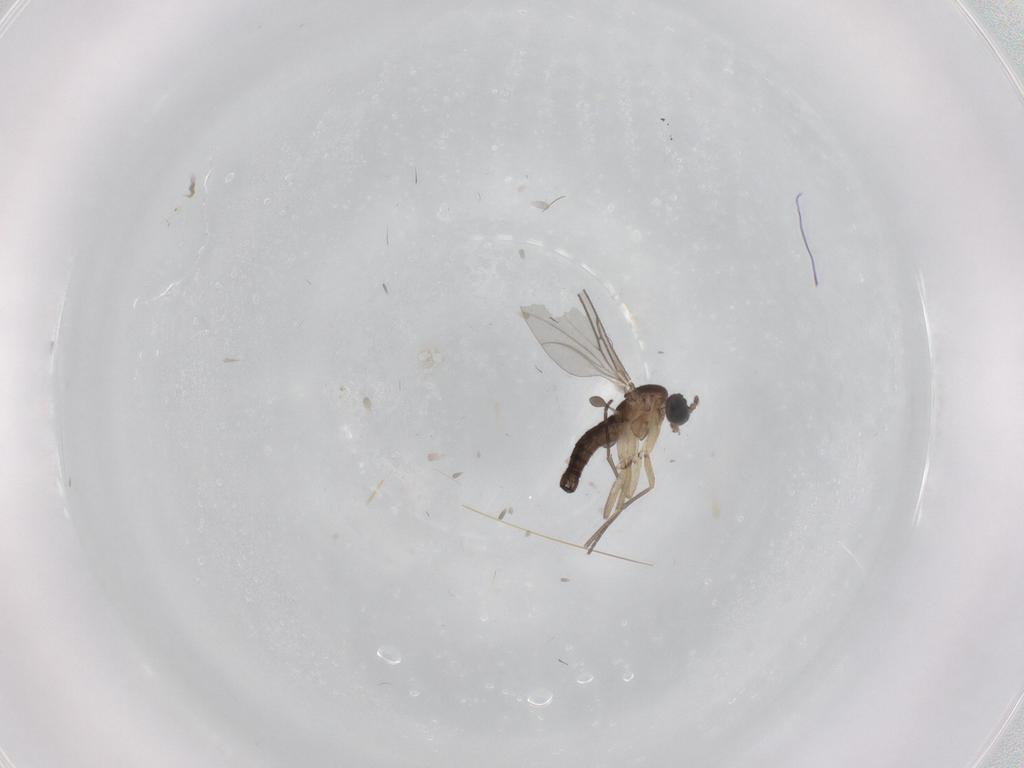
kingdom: Animalia
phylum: Arthropoda
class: Insecta
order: Diptera
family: Sciaridae
